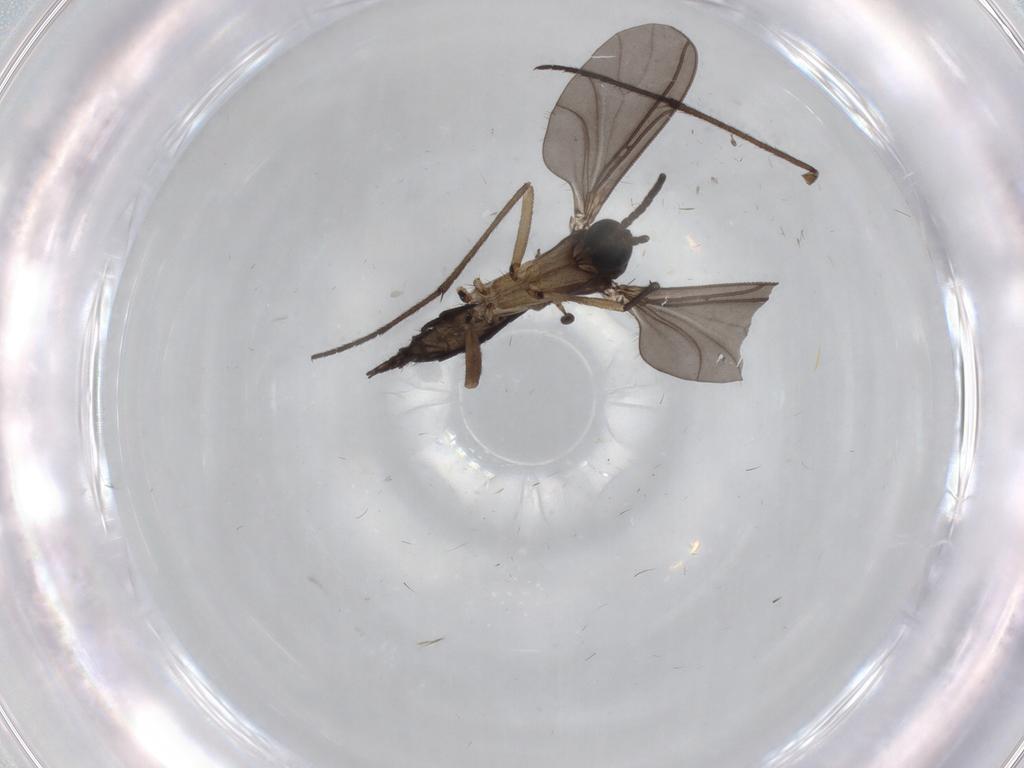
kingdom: Animalia
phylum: Arthropoda
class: Insecta
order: Diptera
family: Sciaridae
